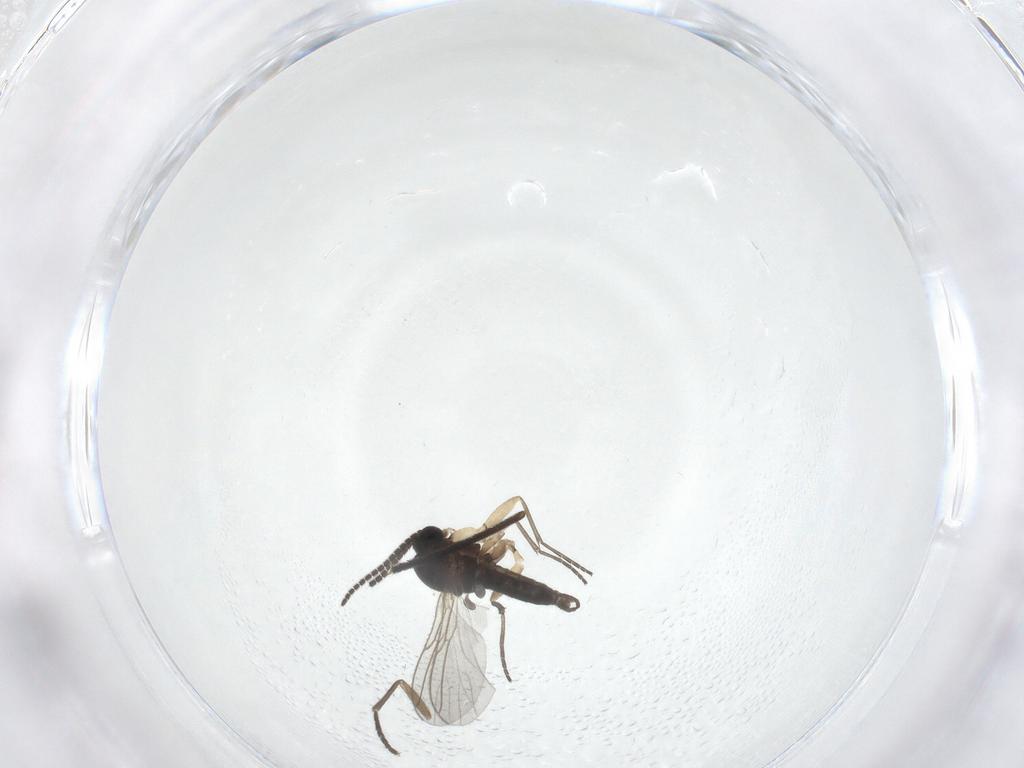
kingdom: Animalia
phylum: Arthropoda
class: Insecta
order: Diptera
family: Sciaridae
